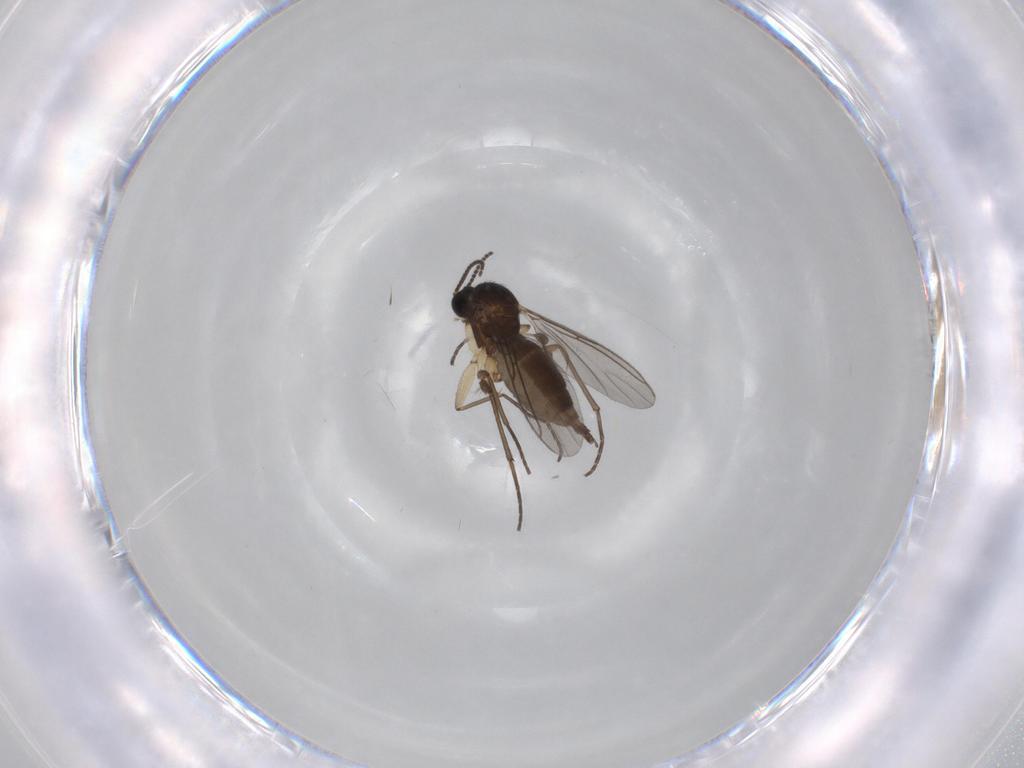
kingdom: Animalia
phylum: Arthropoda
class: Insecta
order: Diptera
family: Sciaridae
